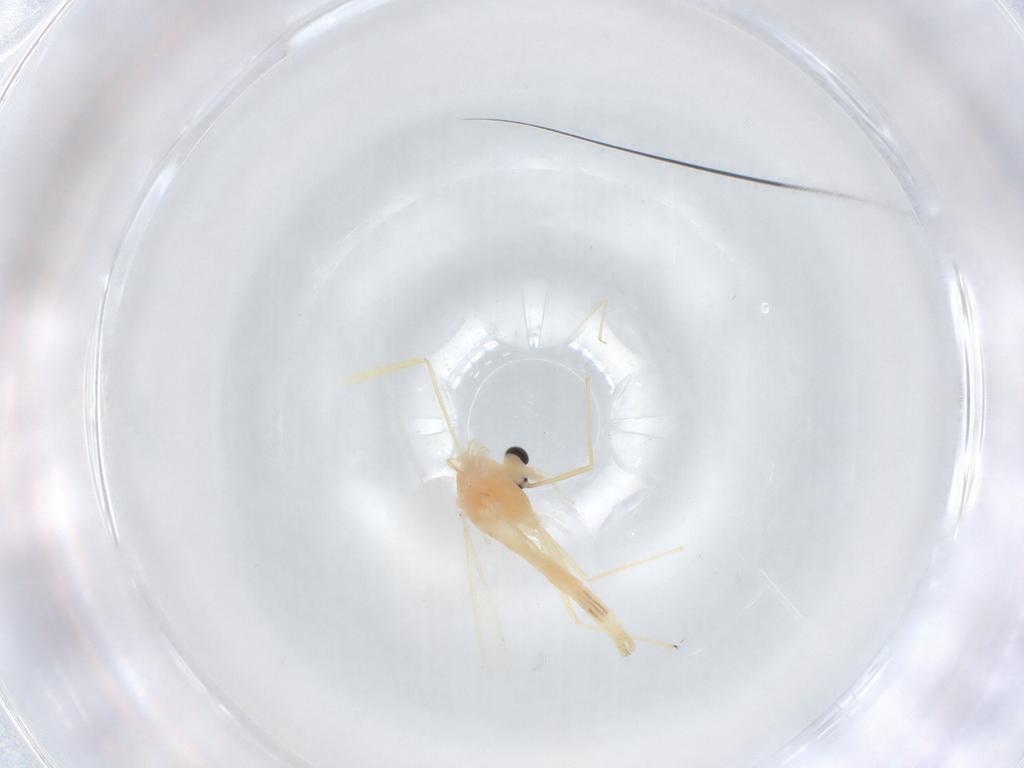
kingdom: Animalia
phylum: Arthropoda
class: Insecta
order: Diptera
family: Chironomidae
